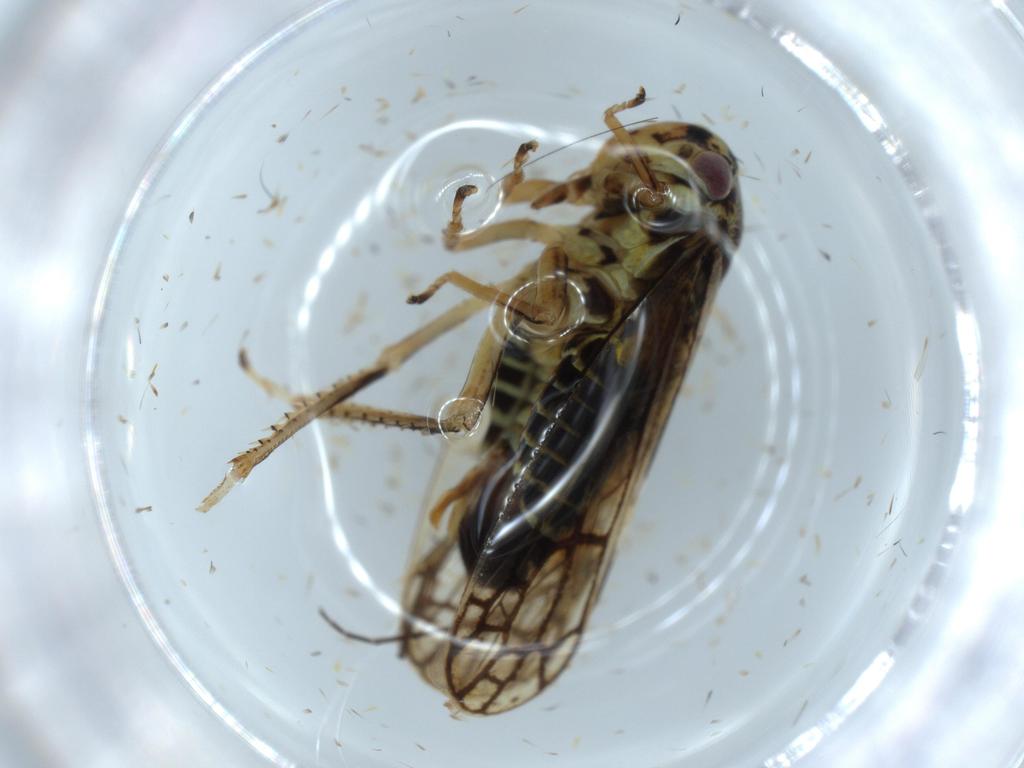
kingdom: Animalia
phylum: Arthropoda
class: Insecta
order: Hemiptera
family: Cicadellidae
